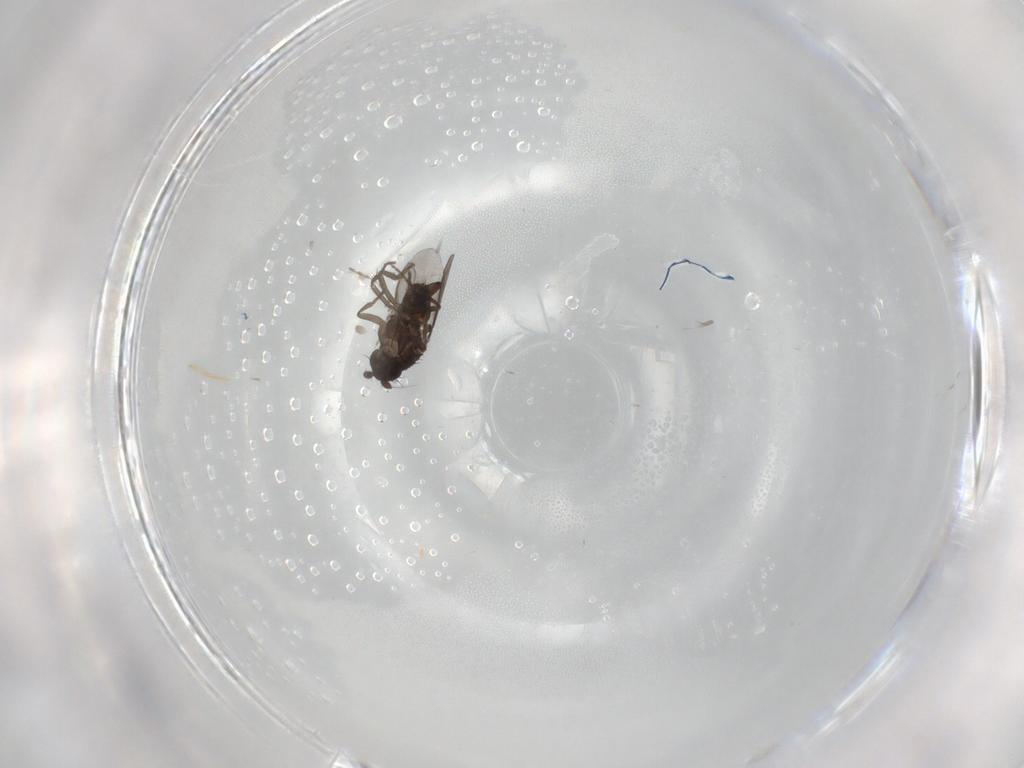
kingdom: Animalia
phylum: Arthropoda
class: Insecta
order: Diptera
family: Sphaeroceridae
